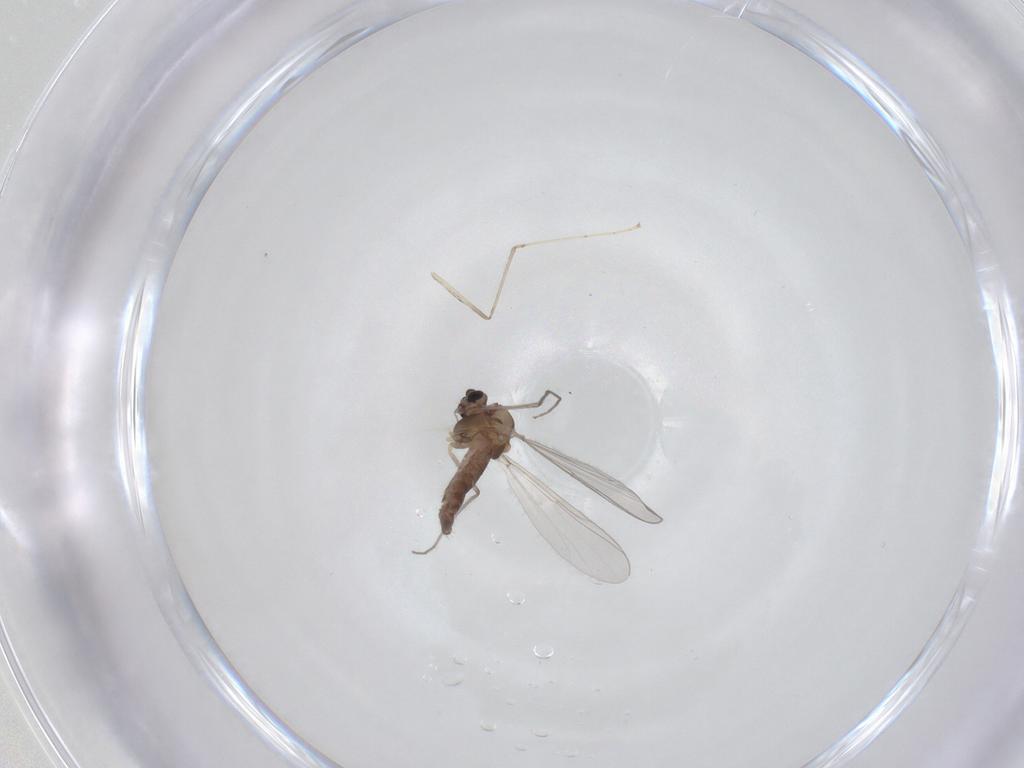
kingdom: Animalia
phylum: Arthropoda
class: Insecta
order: Diptera
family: Chironomidae
